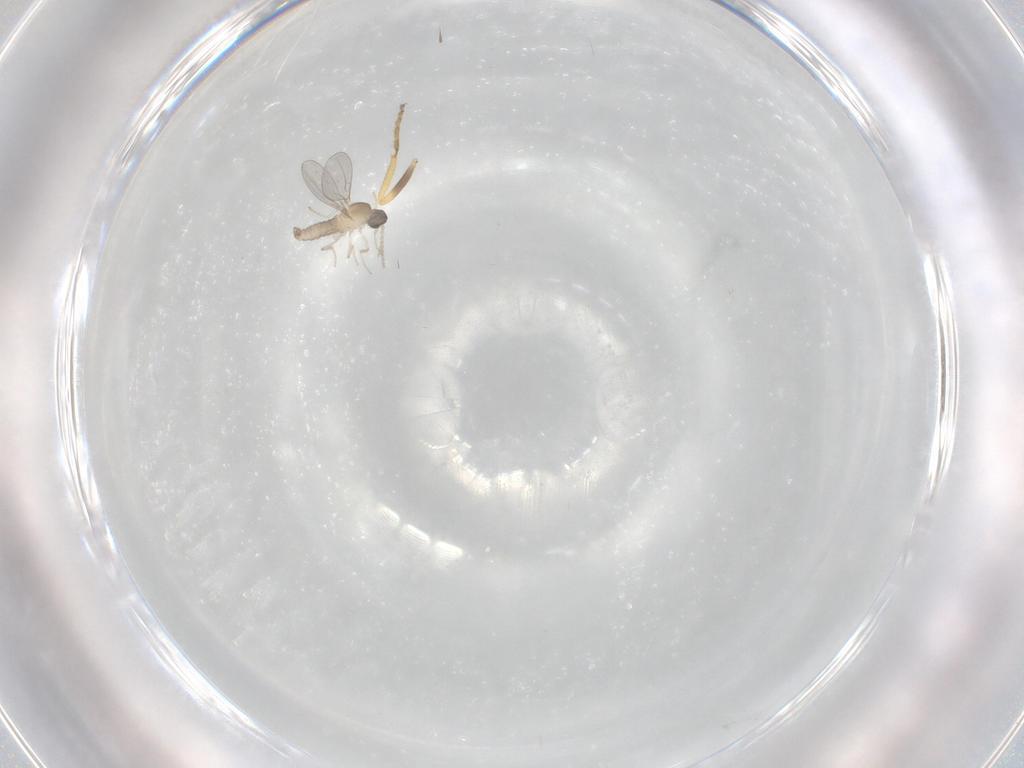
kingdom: Animalia
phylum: Arthropoda
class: Insecta
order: Diptera
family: Cecidomyiidae
